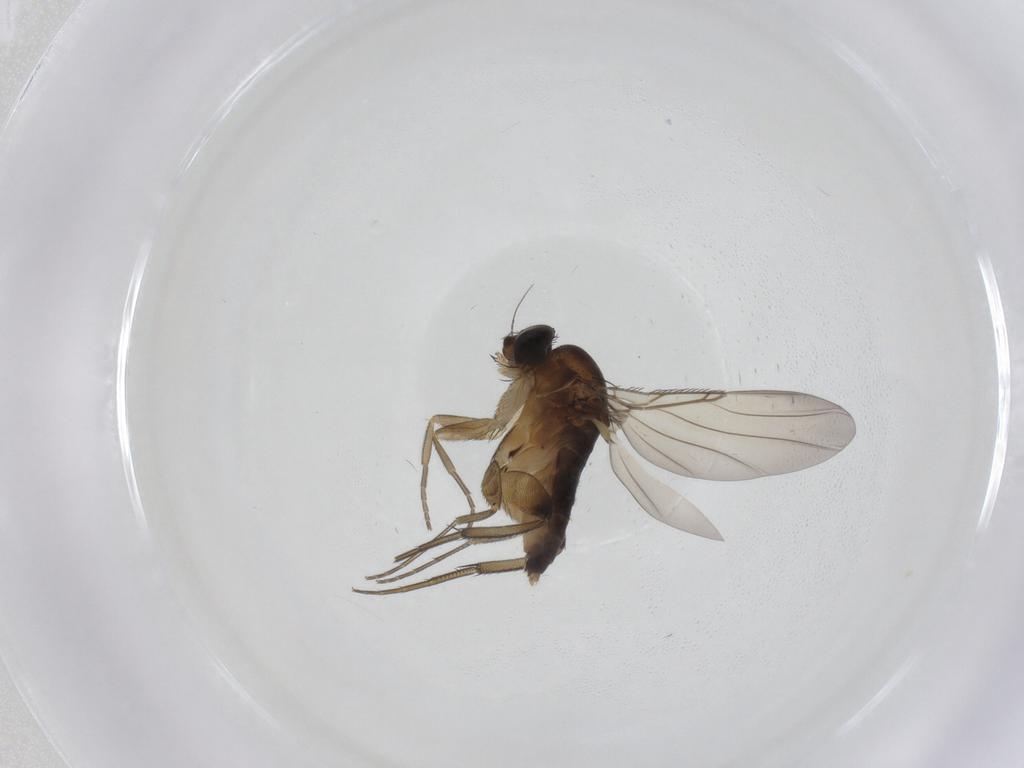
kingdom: Animalia
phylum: Arthropoda
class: Insecta
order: Diptera
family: Phoridae
